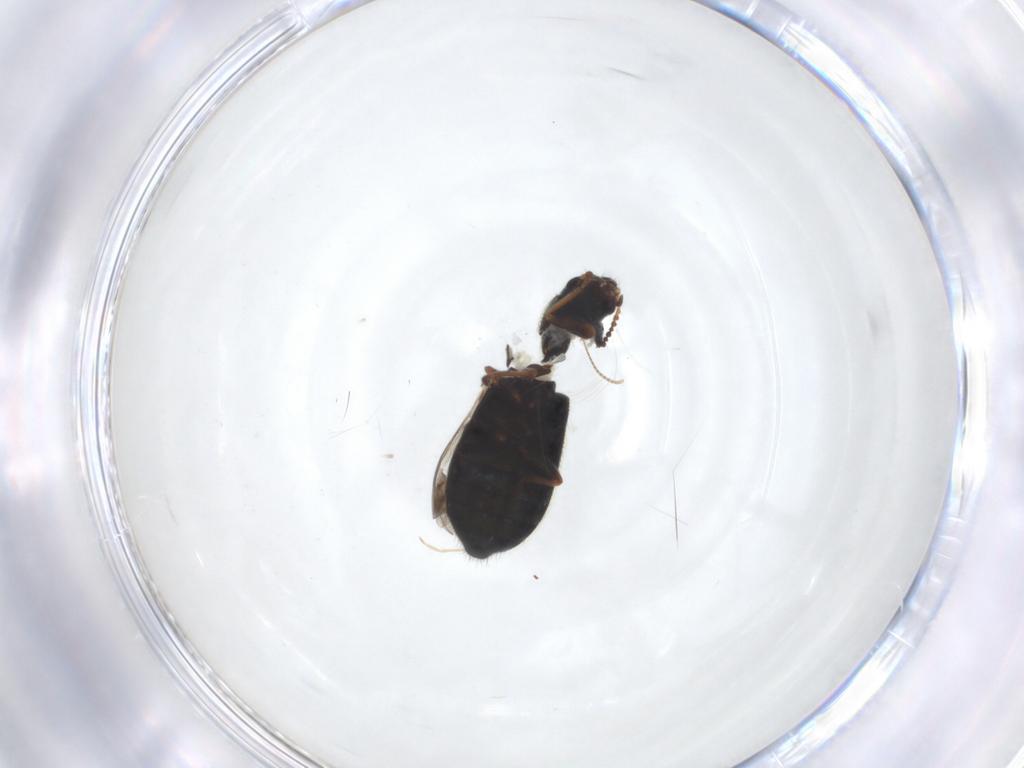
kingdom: Animalia
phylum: Arthropoda
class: Insecta
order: Coleoptera
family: Melyridae
